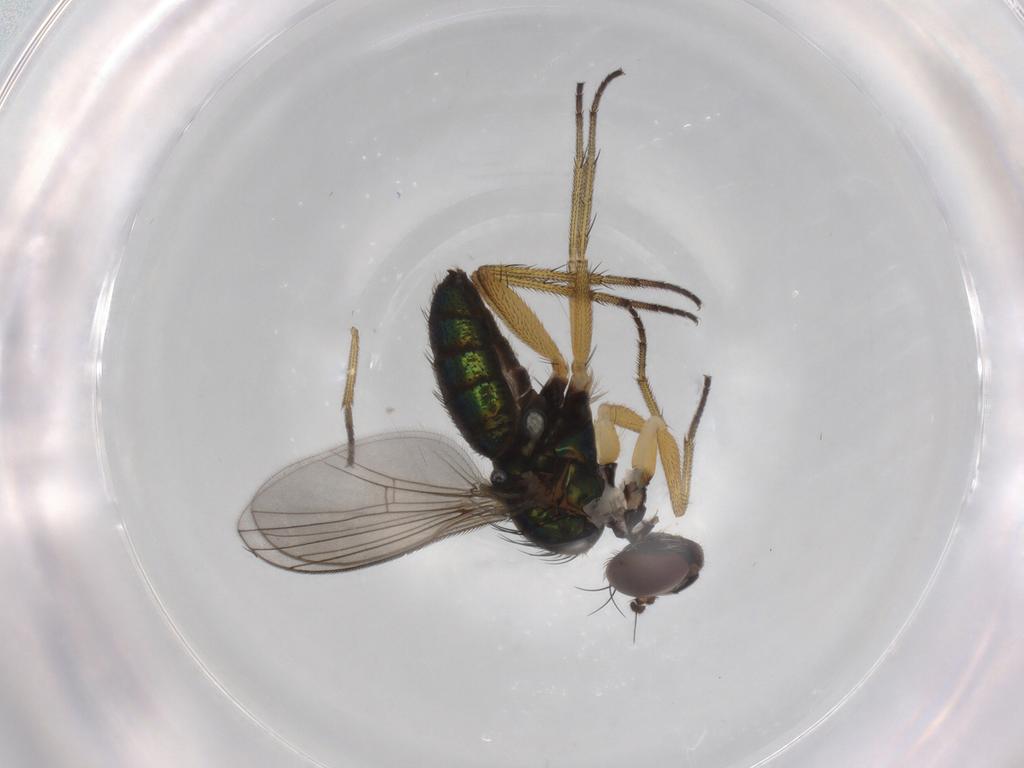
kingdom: Animalia
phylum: Arthropoda
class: Insecta
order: Diptera
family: Dolichopodidae
